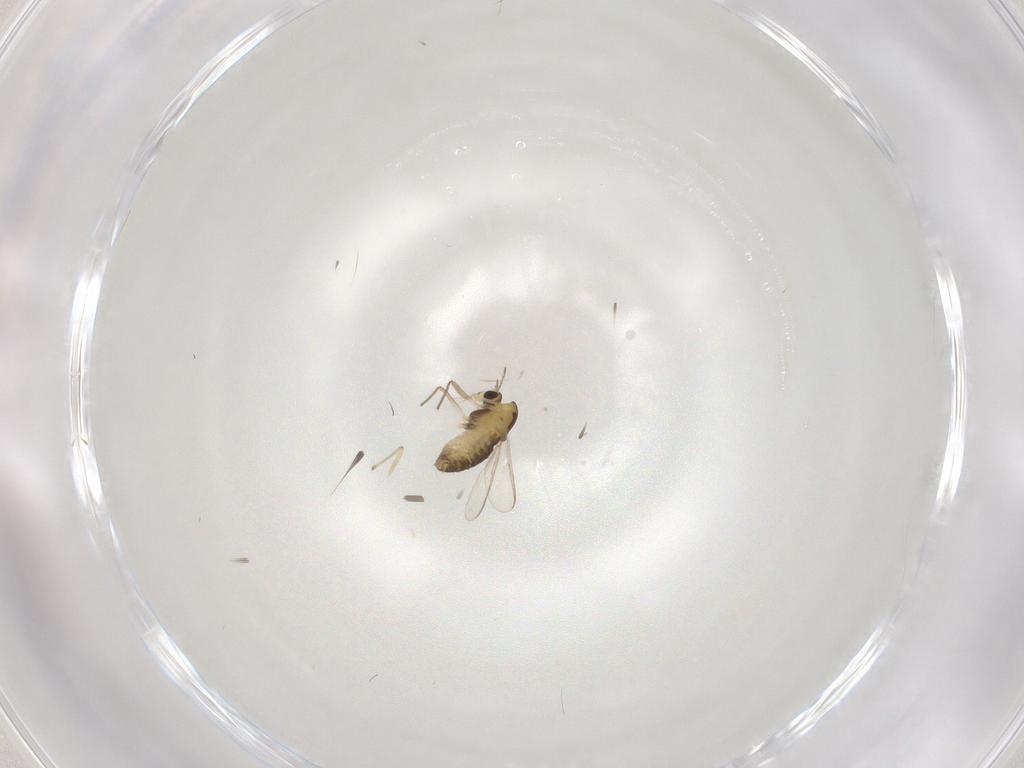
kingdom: Animalia
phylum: Arthropoda
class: Insecta
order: Diptera
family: Chironomidae
